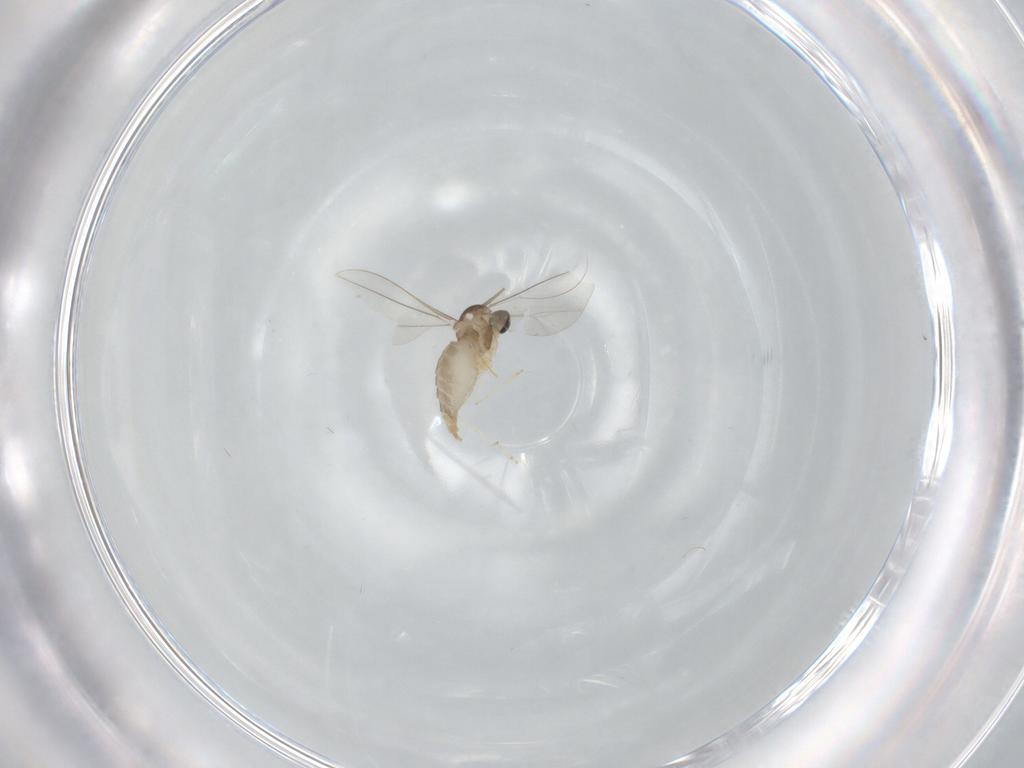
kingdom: Animalia
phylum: Arthropoda
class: Insecta
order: Diptera
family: Cecidomyiidae
